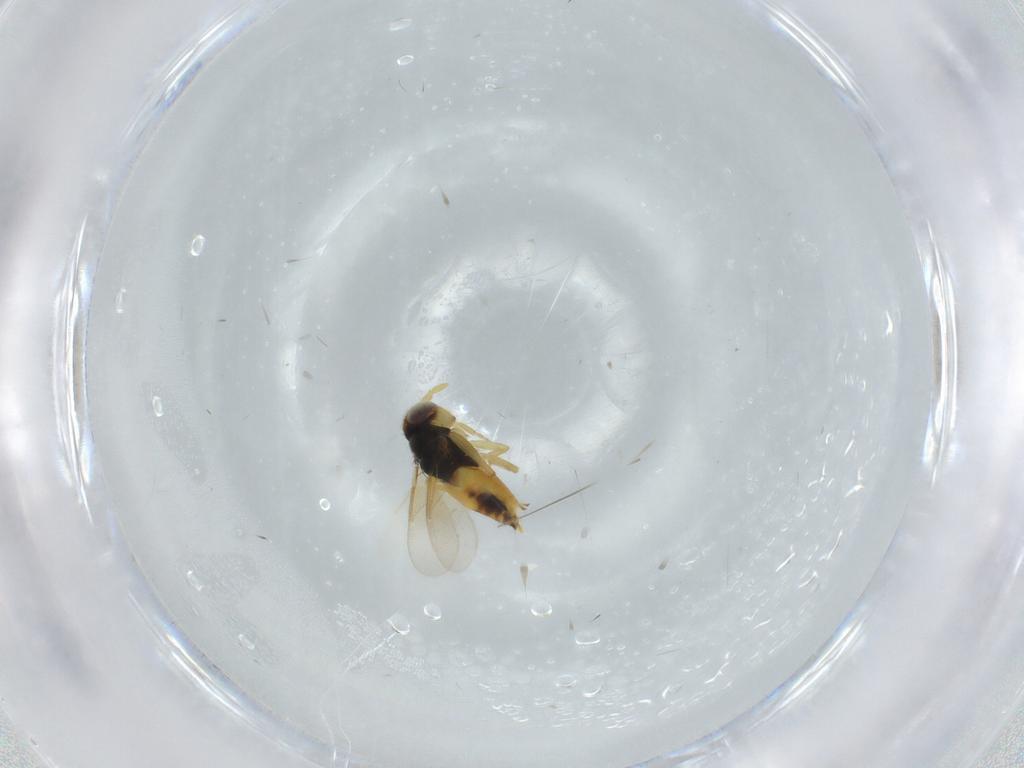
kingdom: Animalia
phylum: Arthropoda
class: Insecta
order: Hymenoptera
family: Aphelinidae
